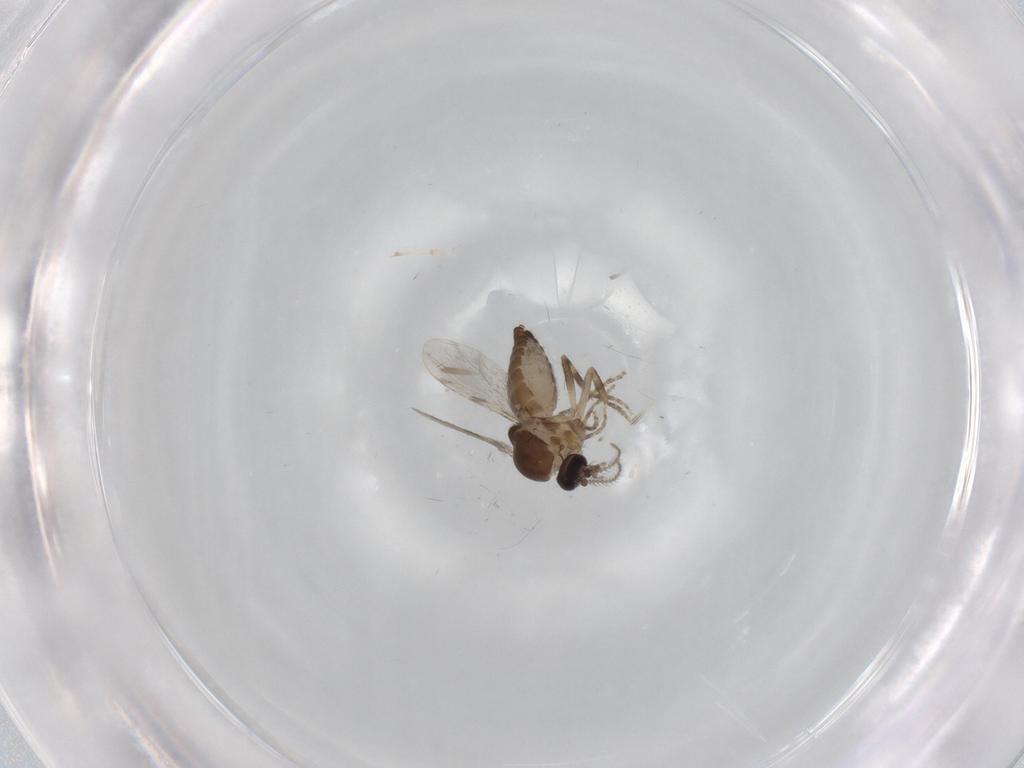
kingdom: Animalia
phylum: Arthropoda
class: Insecta
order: Diptera
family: Ceratopogonidae
